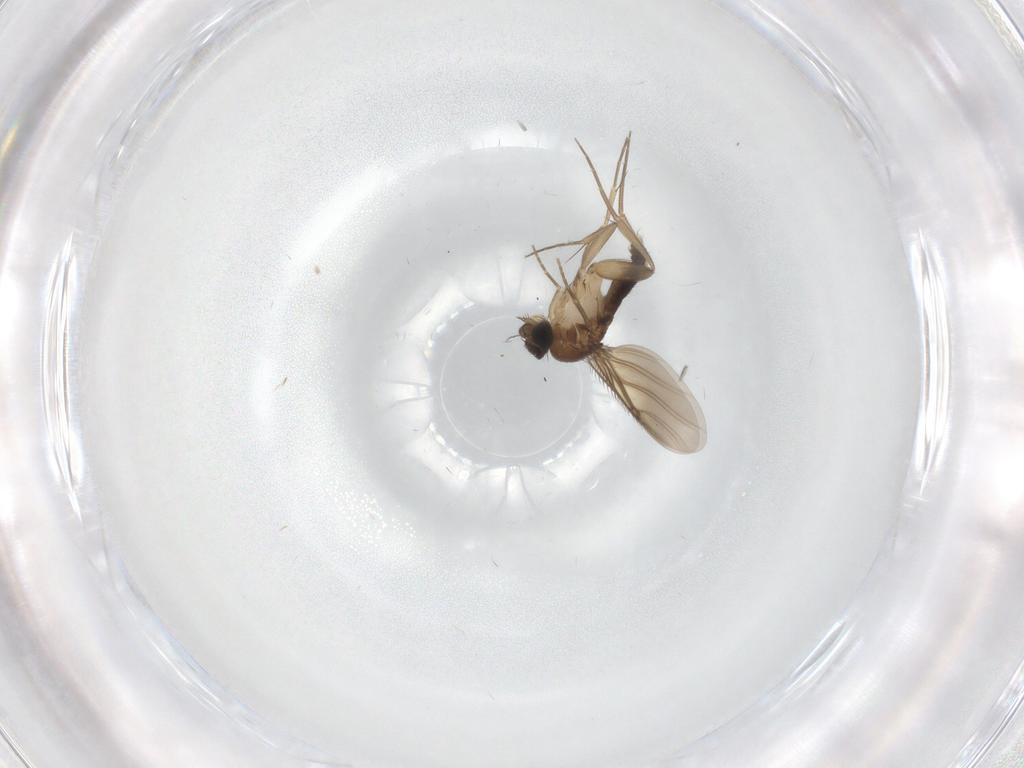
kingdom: Animalia
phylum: Arthropoda
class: Insecta
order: Diptera
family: Phoridae
